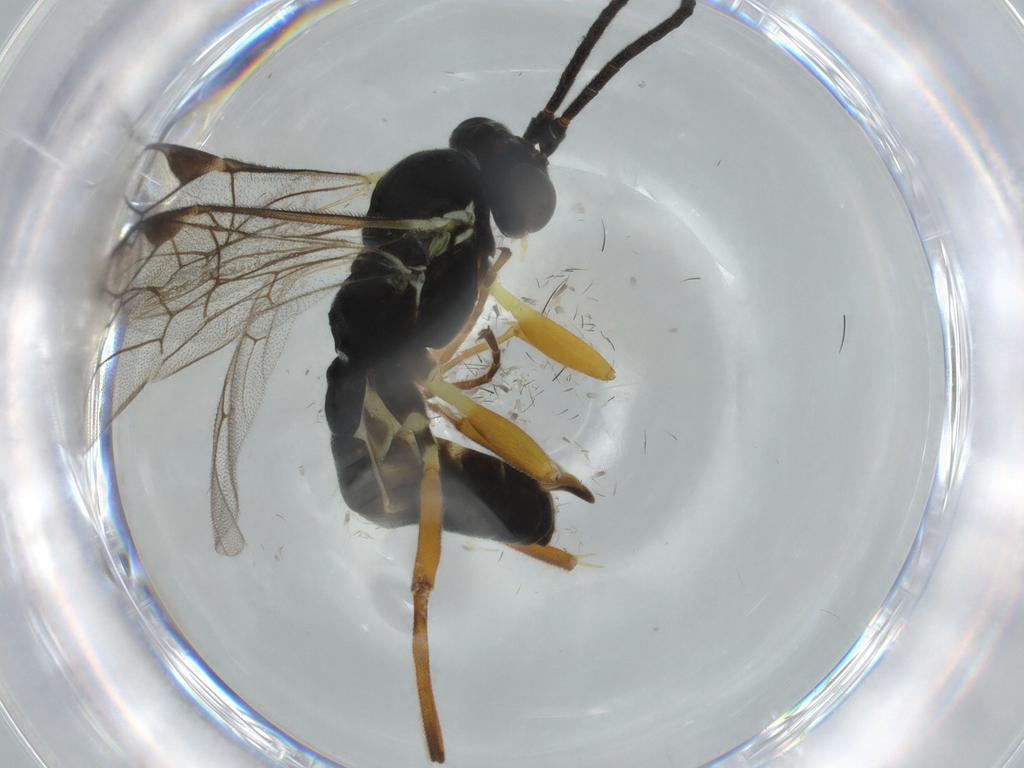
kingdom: Animalia
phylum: Arthropoda
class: Insecta
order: Hymenoptera
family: Ichneumonidae
